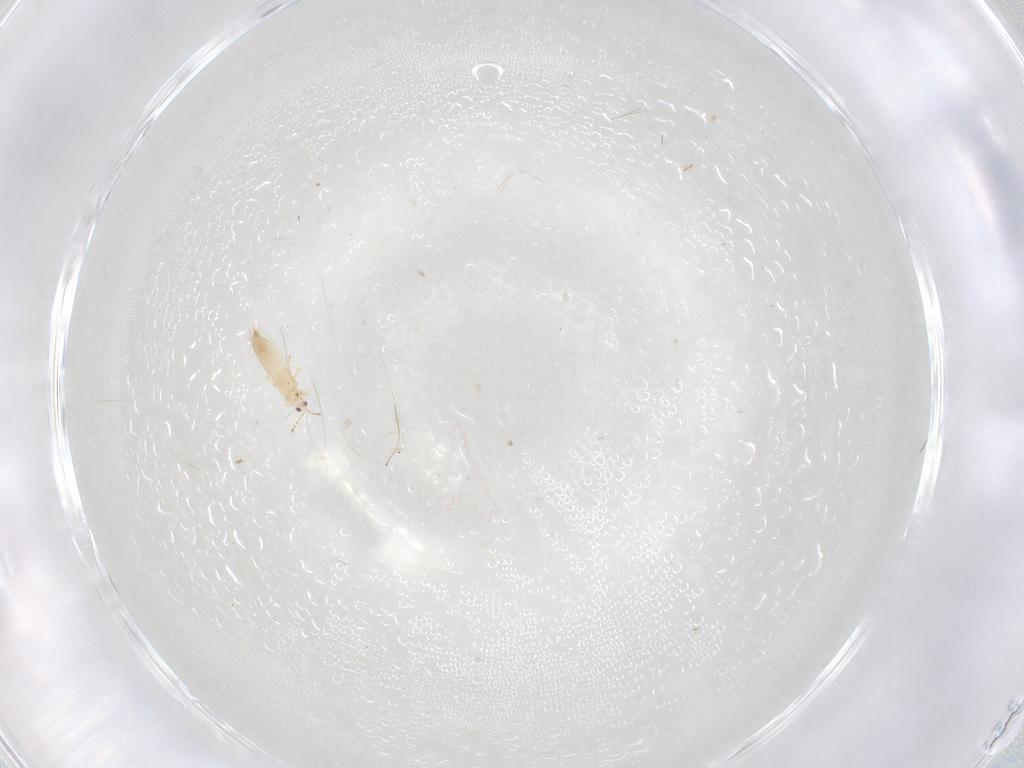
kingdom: Animalia
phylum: Arthropoda
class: Insecta
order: Thysanoptera
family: Thripidae
